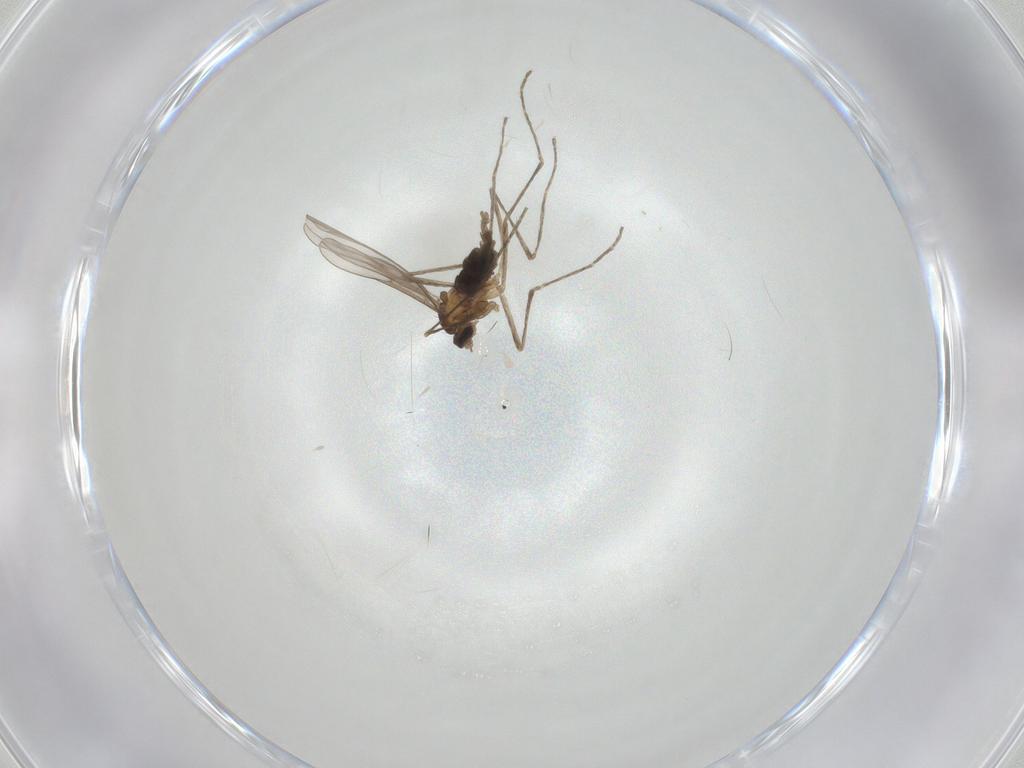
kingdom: Animalia
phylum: Arthropoda
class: Insecta
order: Diptera
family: Cecidomyiidae
